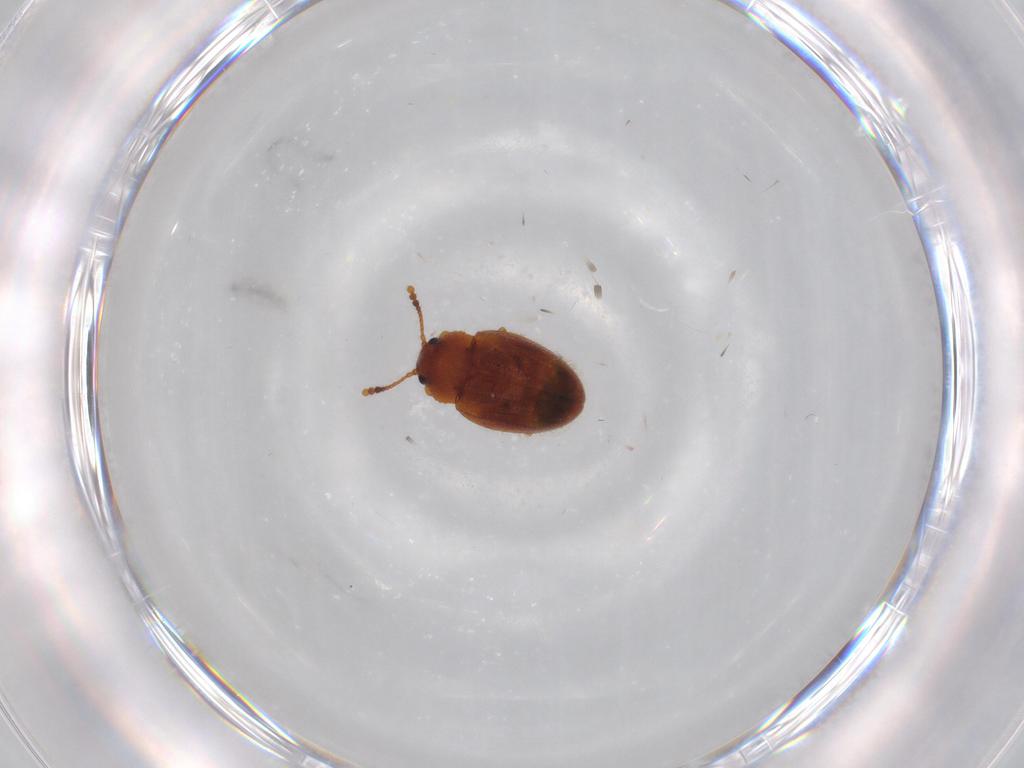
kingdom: Animalia
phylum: Arthropoda
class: Insecta
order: Coleoptera
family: Erotylidae
